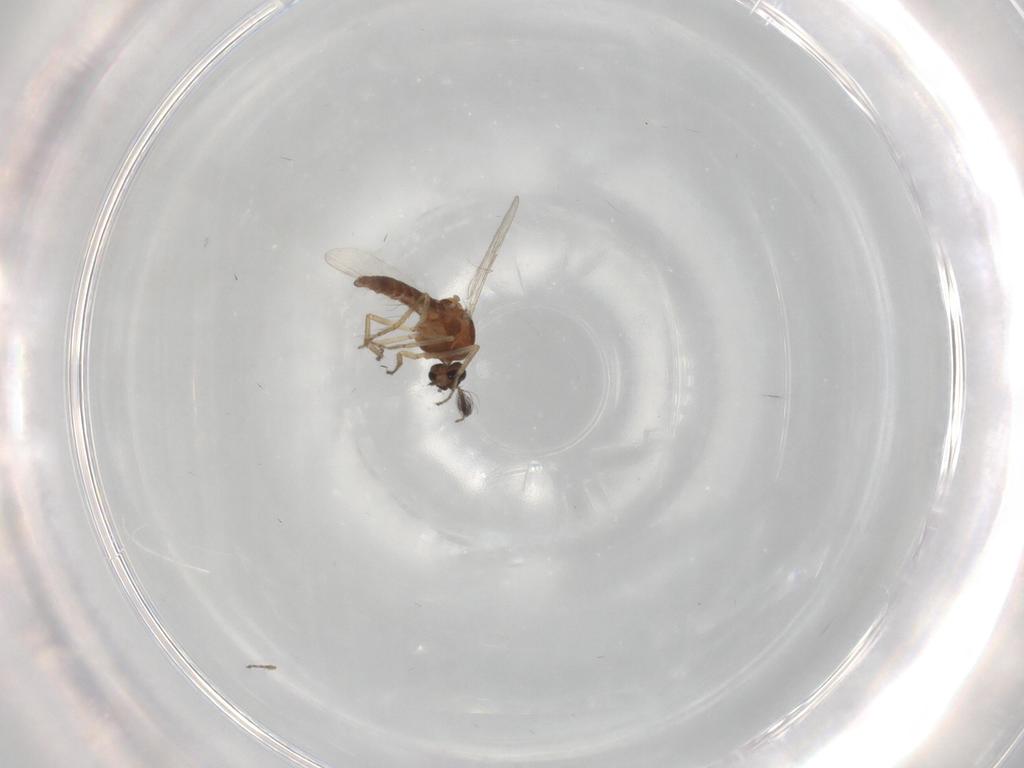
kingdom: Animalia
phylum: Arthropoda
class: Insecta
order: Diptera
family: Ceratopogonidae
